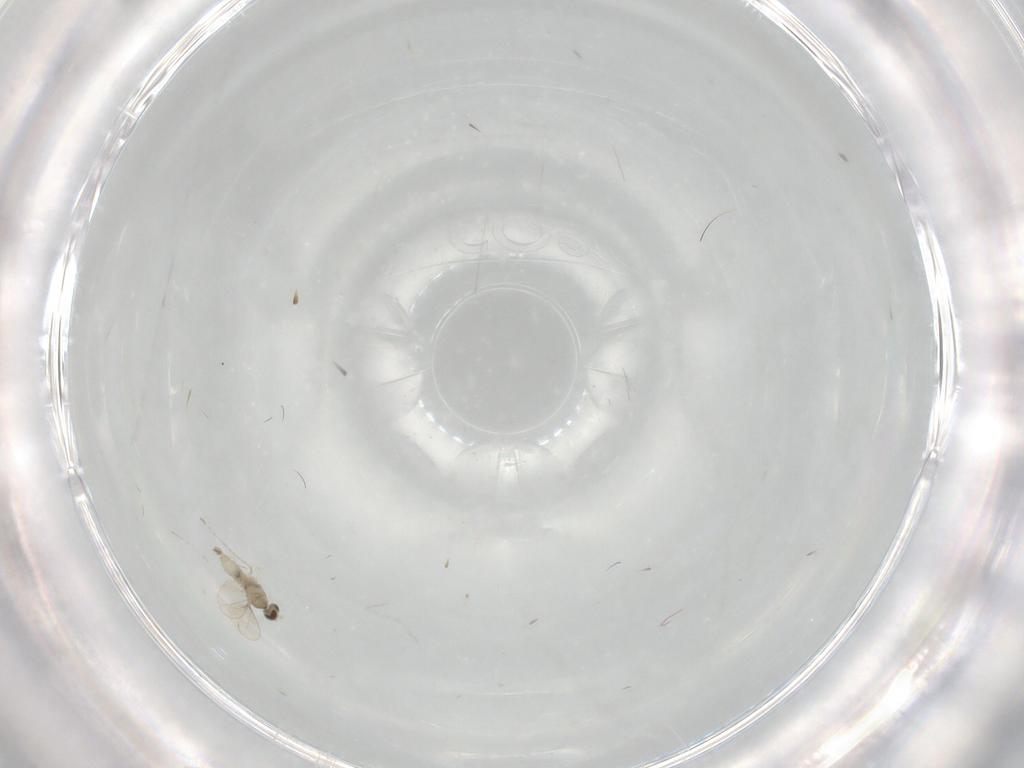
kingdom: Animalia
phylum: Arthropoda
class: Insecta
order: Diptera
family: Cecidomyiidae
